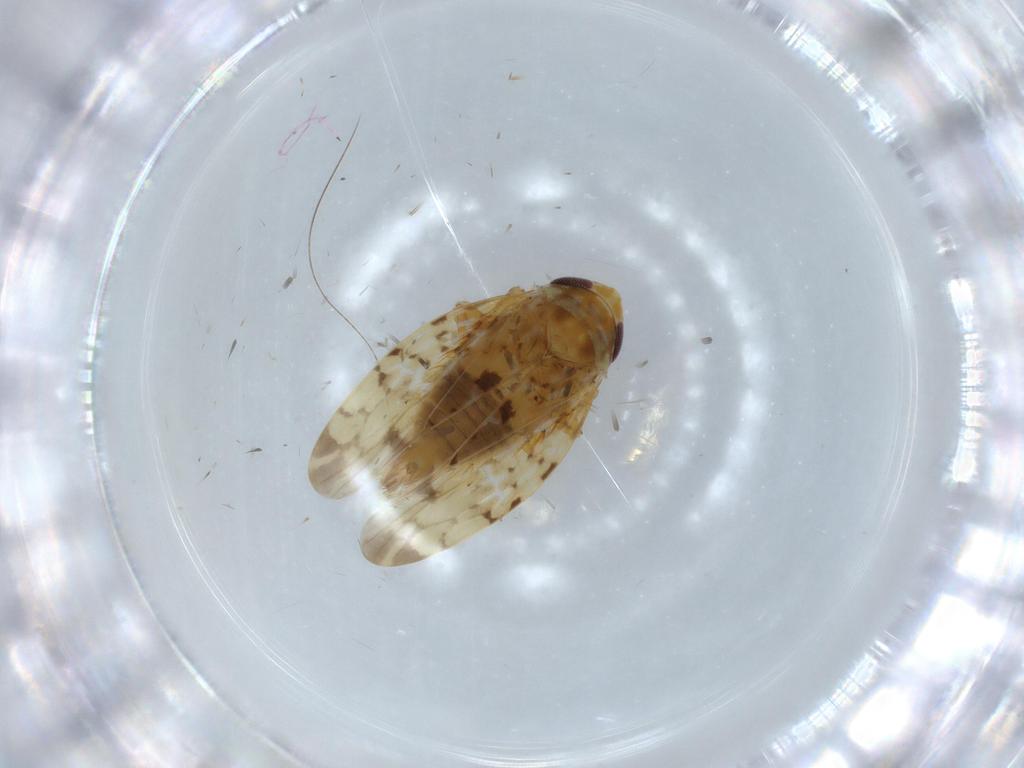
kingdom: Animalia
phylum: Arthropoda
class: Insecta
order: Hemiptera
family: Cicadellidae
